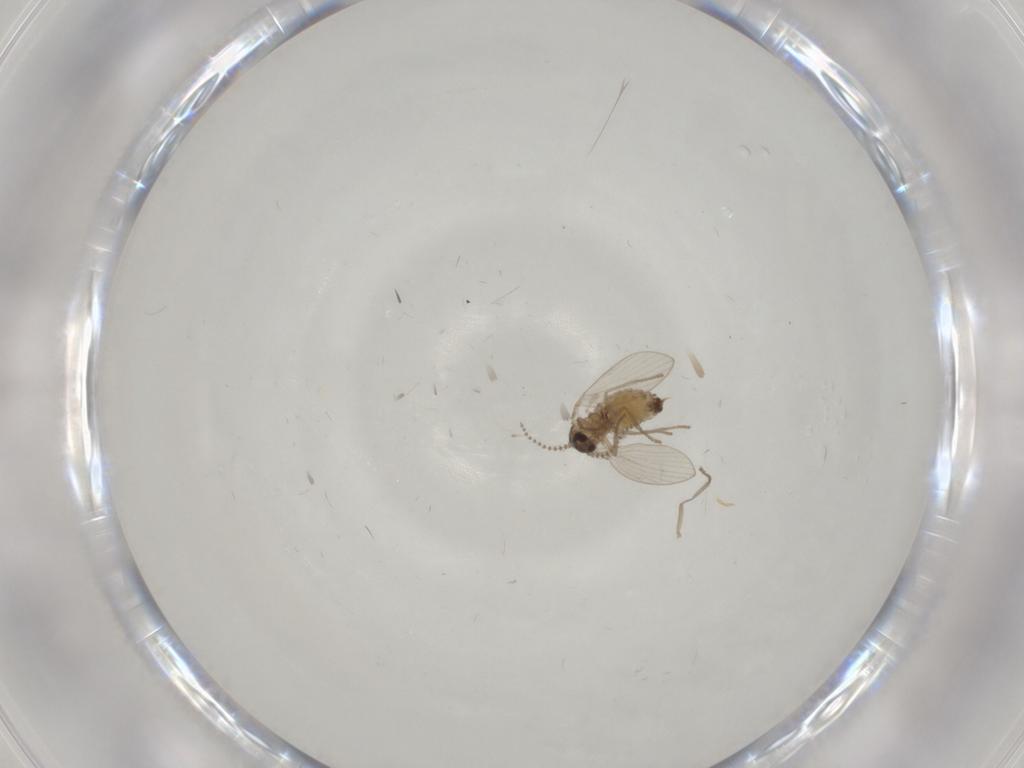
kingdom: Animalia
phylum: Arthropoda
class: Insecta
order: Diptera
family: Psychodidae
